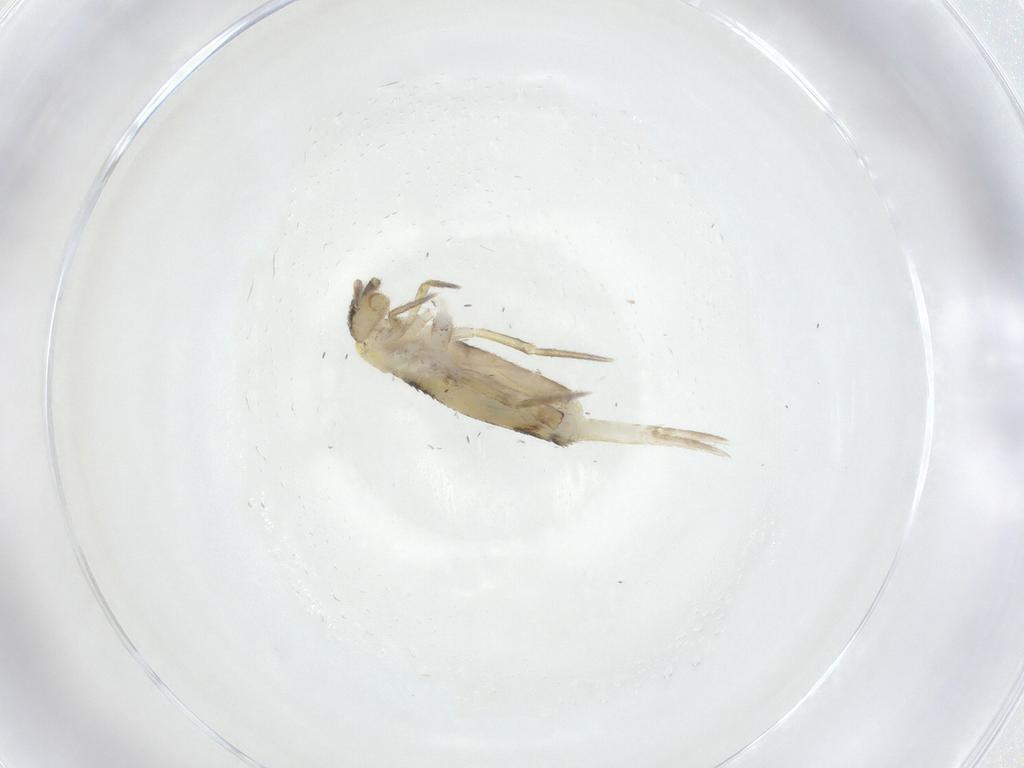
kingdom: Animalia
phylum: Arthropoda
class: Collembola
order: Entomobryomorpha
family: Entomobryidae
